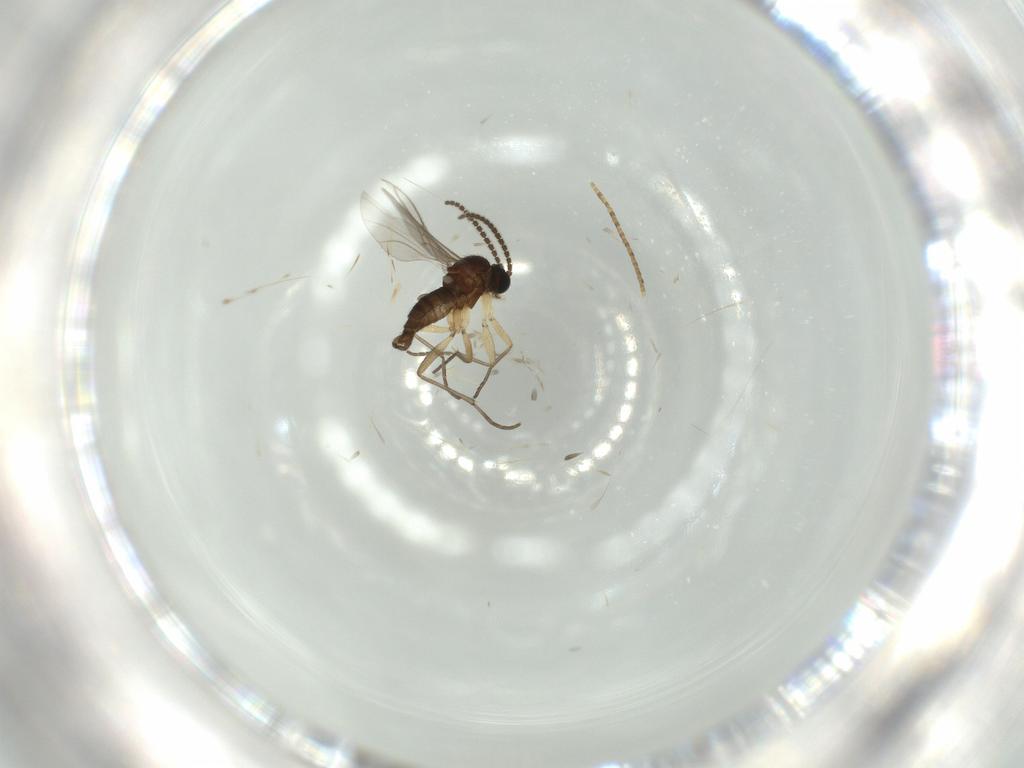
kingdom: Animalia
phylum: Arthropoda
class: Insecta
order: Diptera
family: Sciaridae
